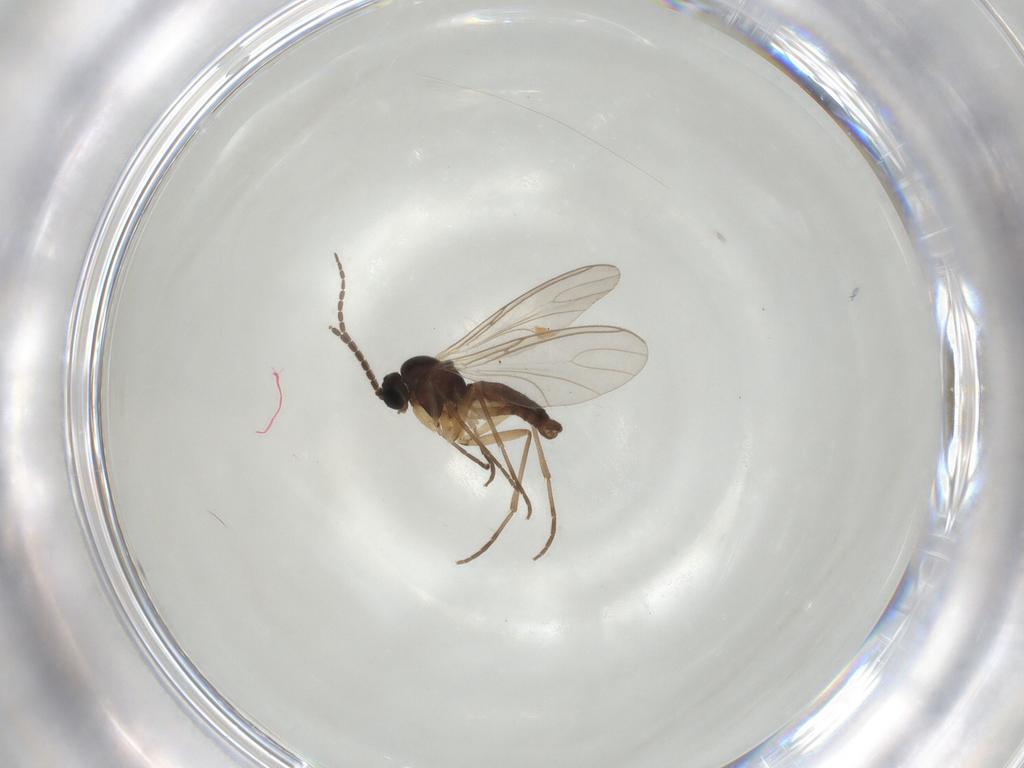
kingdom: Animalia
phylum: Arthropoda
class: Insecta
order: Diptera
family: Sciaridae
